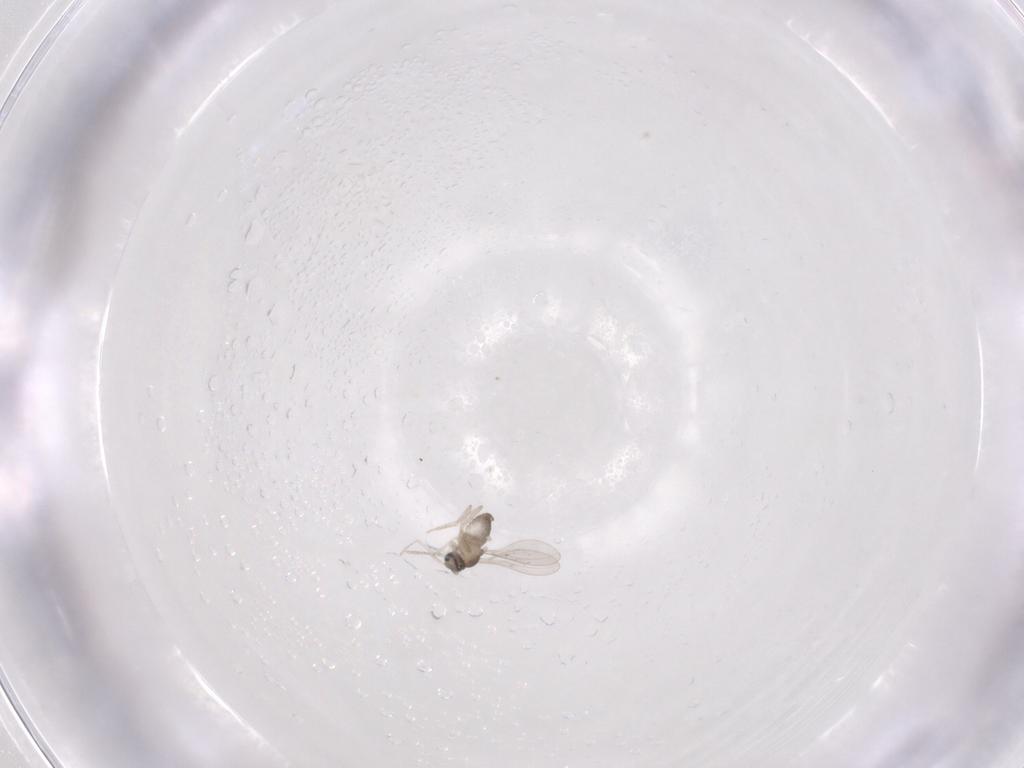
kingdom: Animalia
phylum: Arthropoda
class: Insecta
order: Diptera
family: Cecidomyiidae
